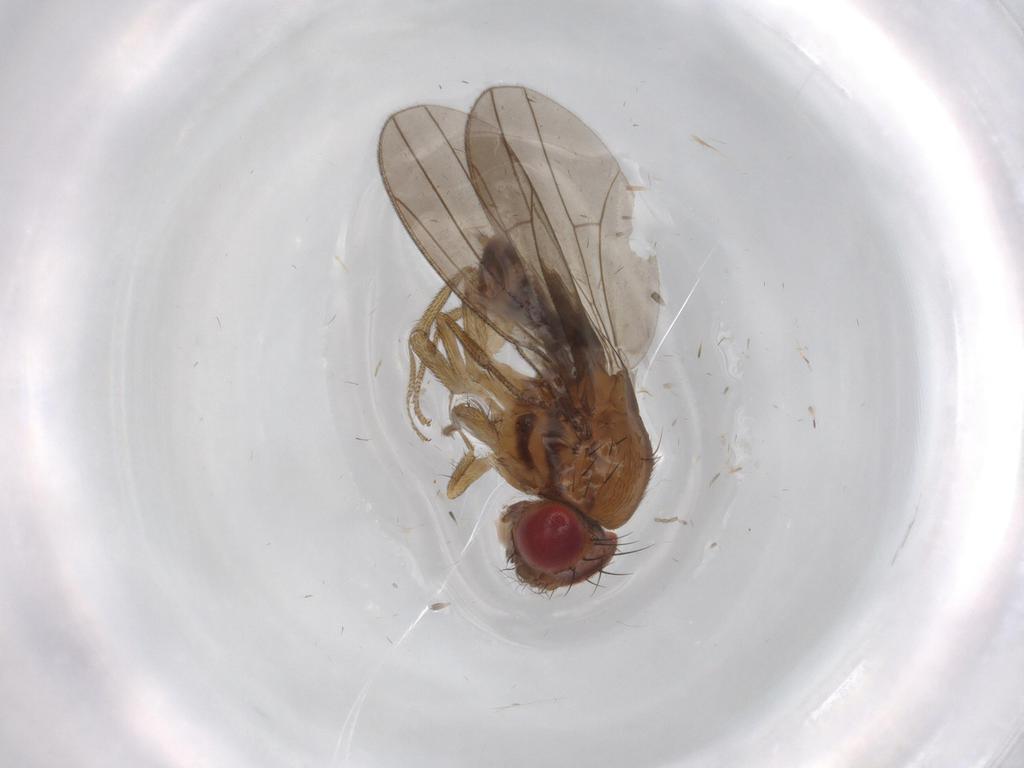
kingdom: Animalia
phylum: Arthropoda
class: Insecta
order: Diptera
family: Drosophilidae
